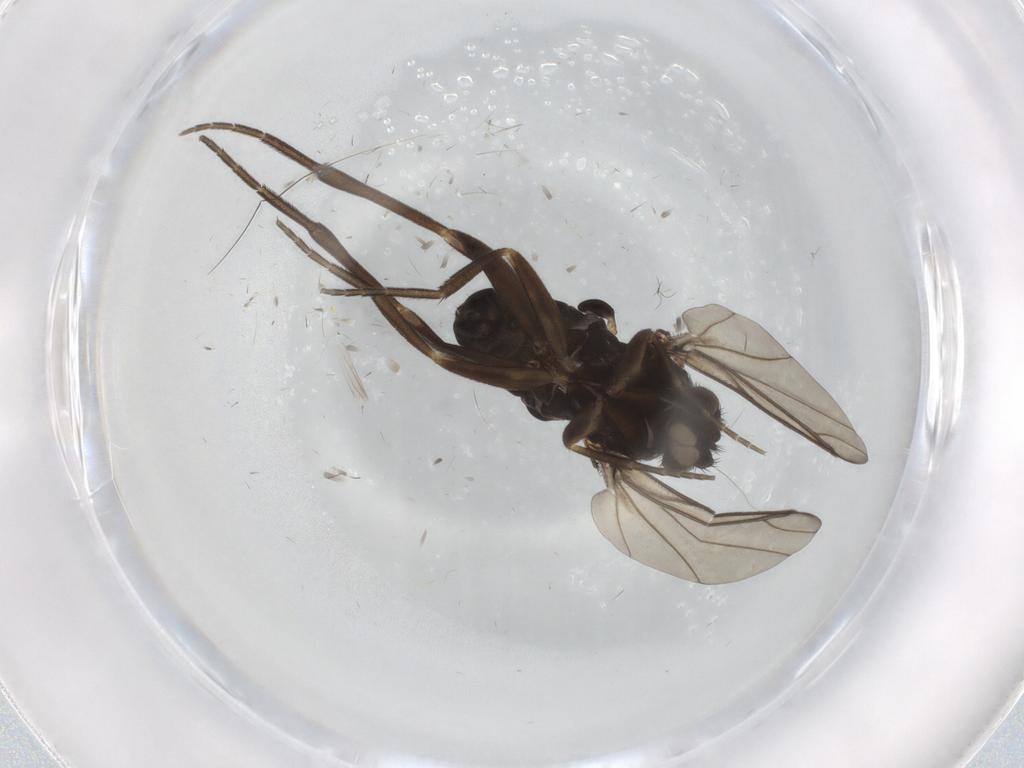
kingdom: Animalia
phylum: Arthropoda
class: Insecta
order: Diptera
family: Phoridae
